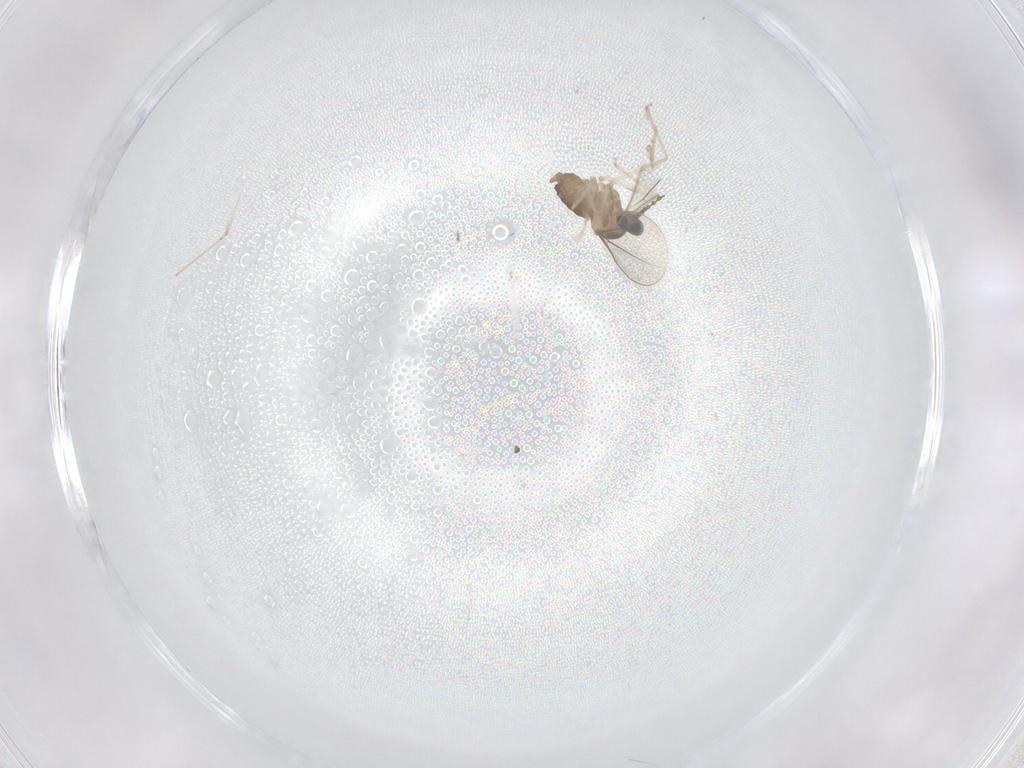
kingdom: Animalia
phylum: Arthropoda
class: Insecta
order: Diptera
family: Cecidomyiidae
